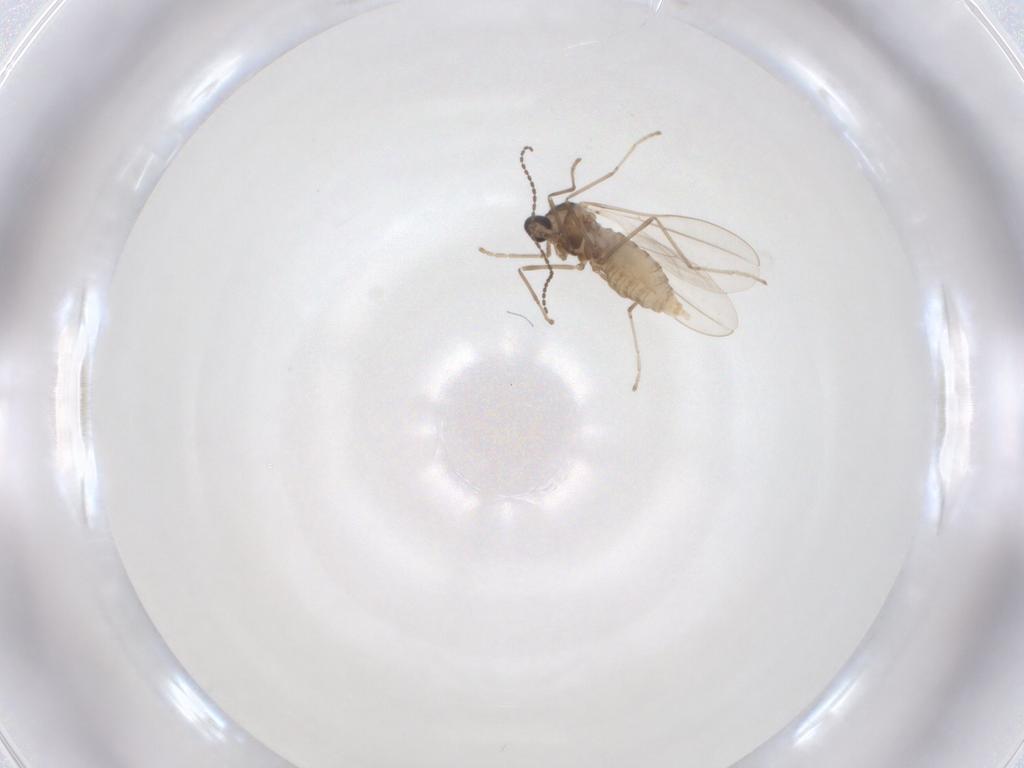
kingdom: Animalia
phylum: Arthropoda
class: Insecta
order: Diptera
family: Cecidomyiidae
